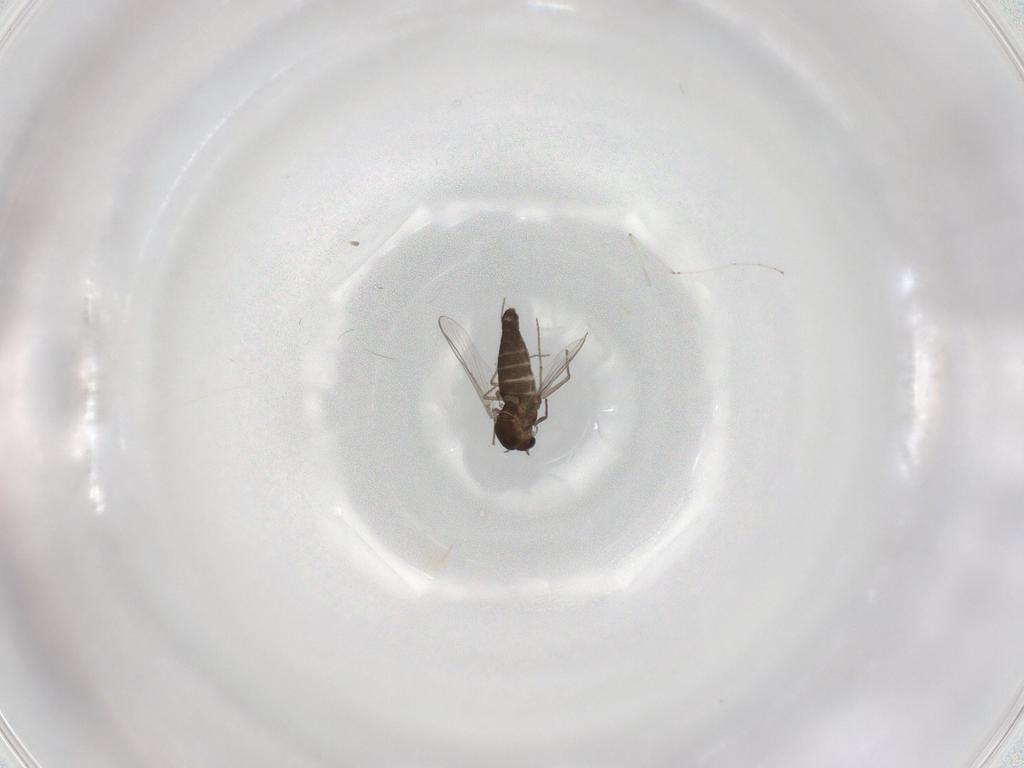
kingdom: Animalia
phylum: Arthropoda
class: Insecta
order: Diptera
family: Chironomidae
